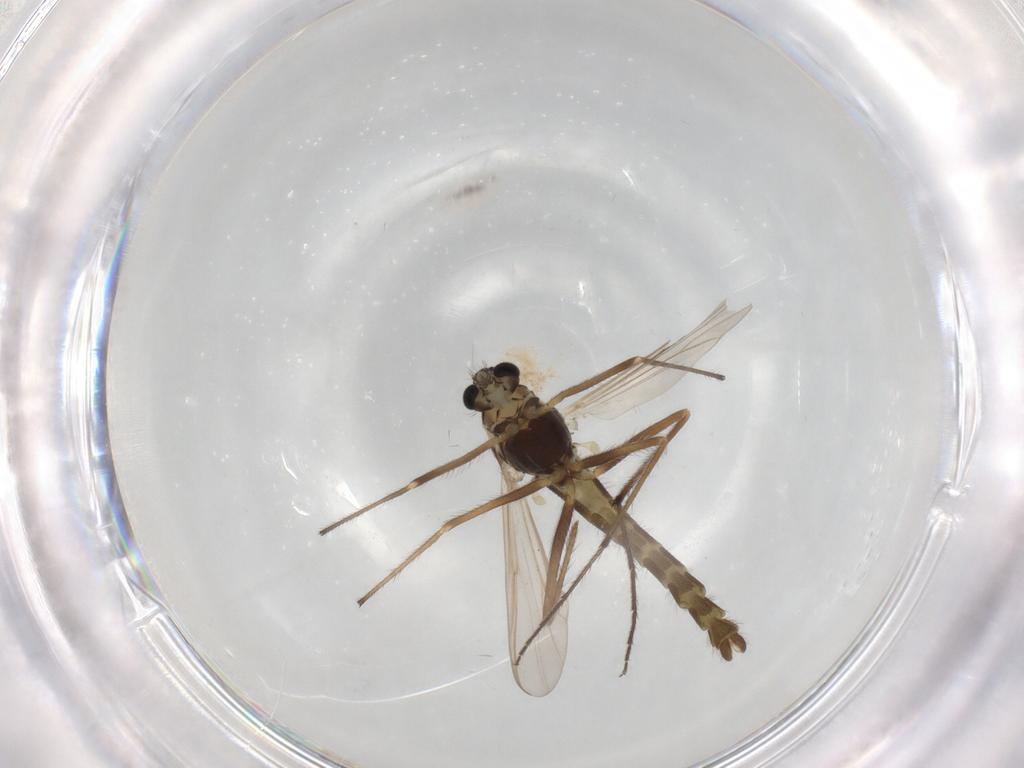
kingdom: Animalia
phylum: Arthropoda
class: Insecta
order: Diptera
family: Chironomidae
